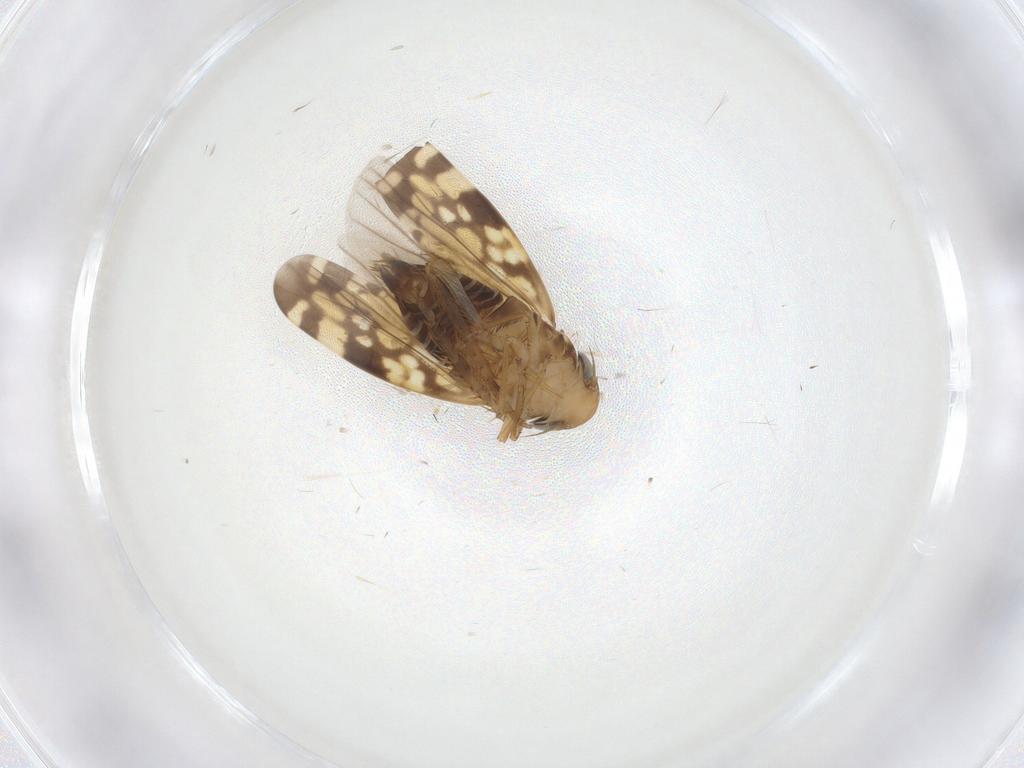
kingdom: Animalia
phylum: Arthropoda
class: Insecta
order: Hemiptera
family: Cicadellidae
